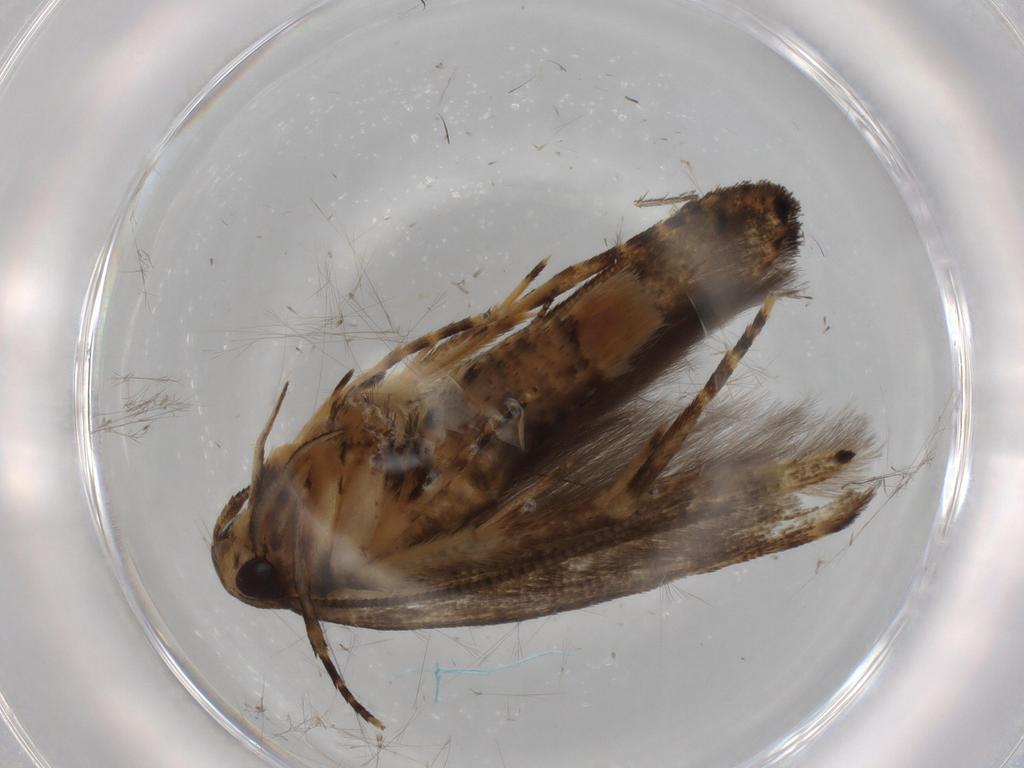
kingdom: Animalia
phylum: Arthropoda
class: Insecta
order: Lepidoptera
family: Cosmopterigidae
